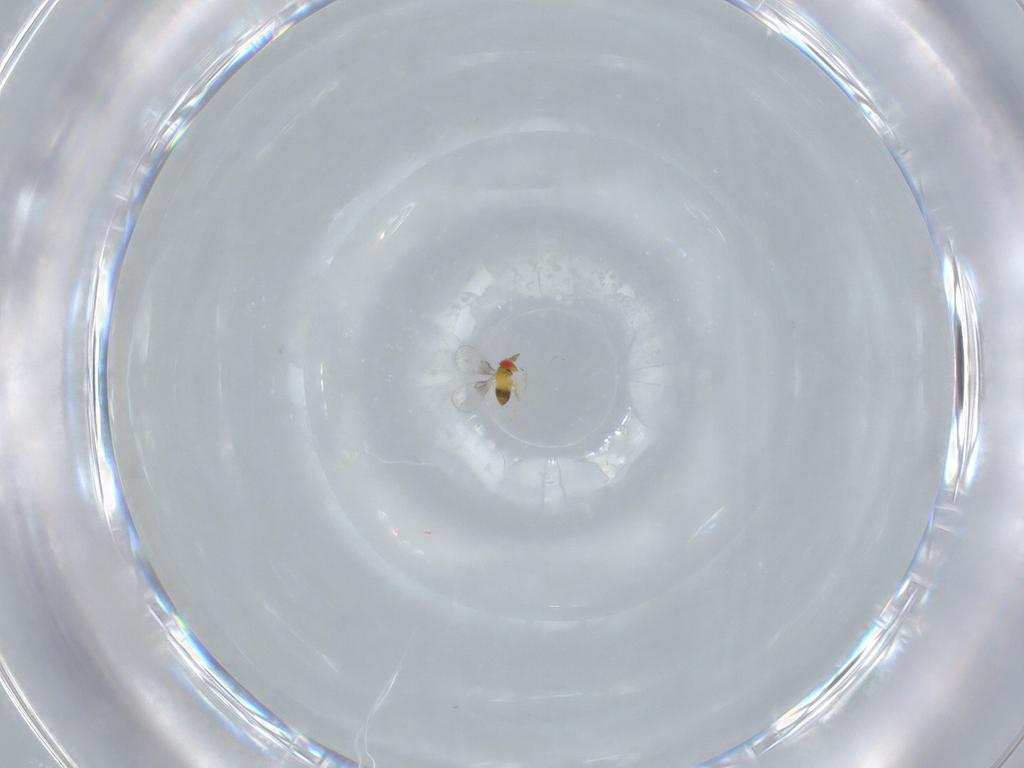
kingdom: Animalia
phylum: Arthropoda
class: Insecta
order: Hymenoptera
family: Trichogrammatidae
